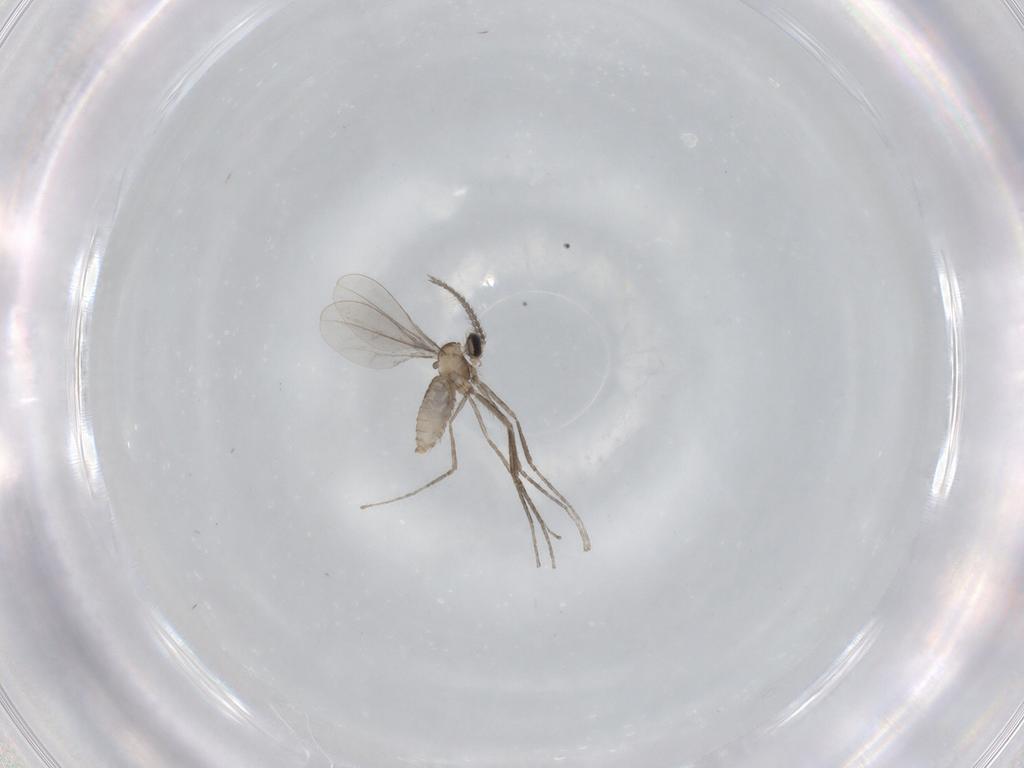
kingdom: Animalia
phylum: Arthropoda
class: Insecta
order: Diptera
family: Cecidomyiidae
